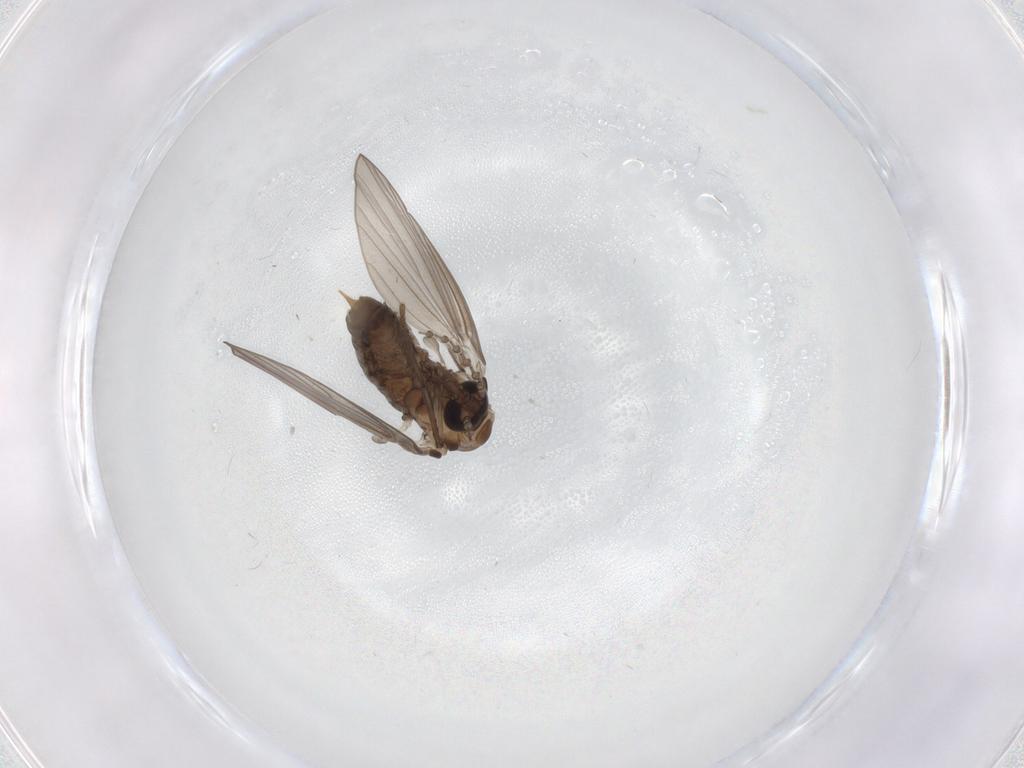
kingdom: Animalia
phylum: Arthropoda
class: Insecta
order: Diptera
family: Psychodidae
